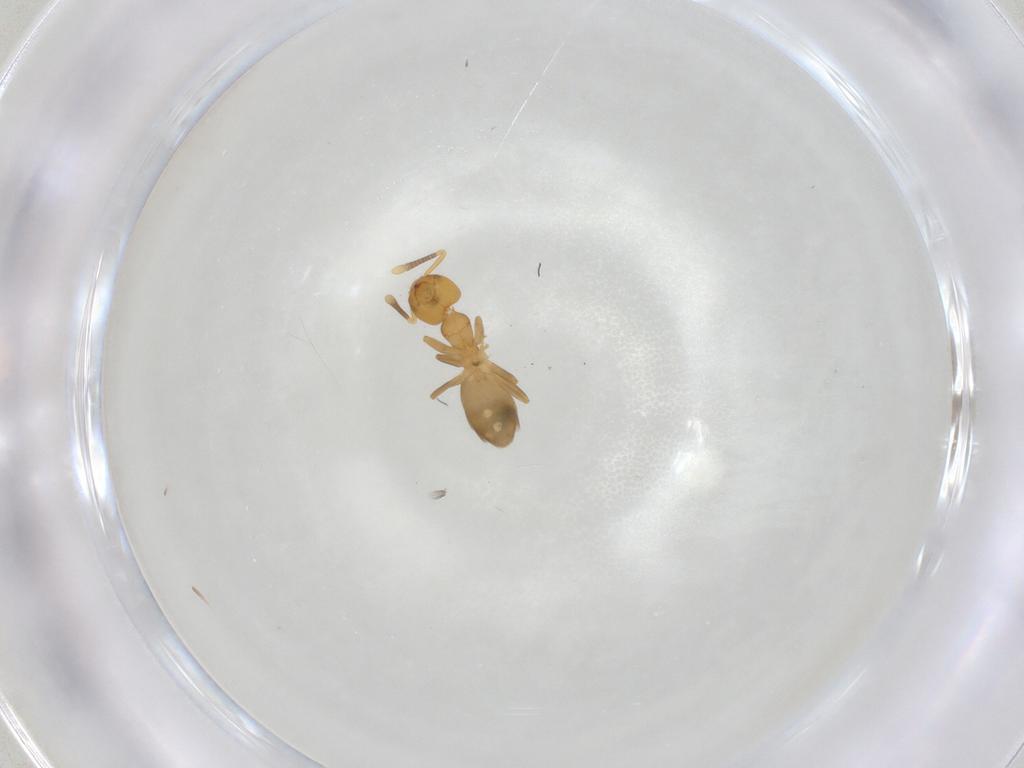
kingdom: Animalia
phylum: Arthropoda
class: Insecta
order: Hymenoptera
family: Formicidae
